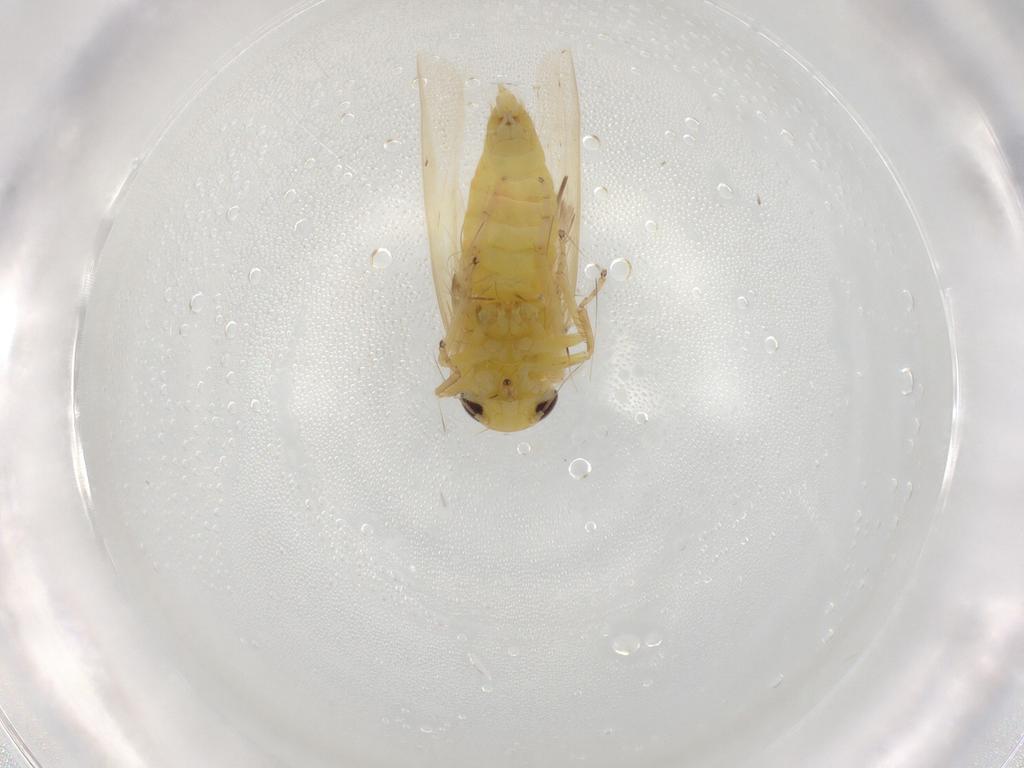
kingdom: Animalia
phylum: Arthropoda
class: Insecta
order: Hemiptera
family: Cicadellidae
